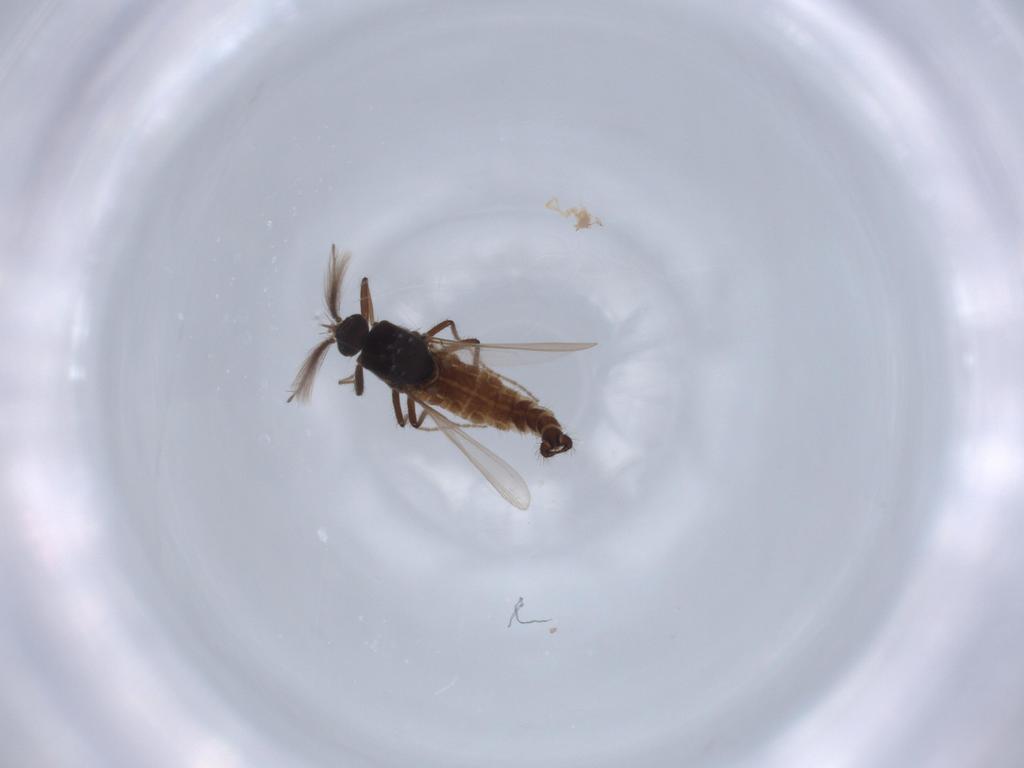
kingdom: Animalia
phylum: Arthropoda
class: Insecta
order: Diptera
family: Ceratopogonidae
